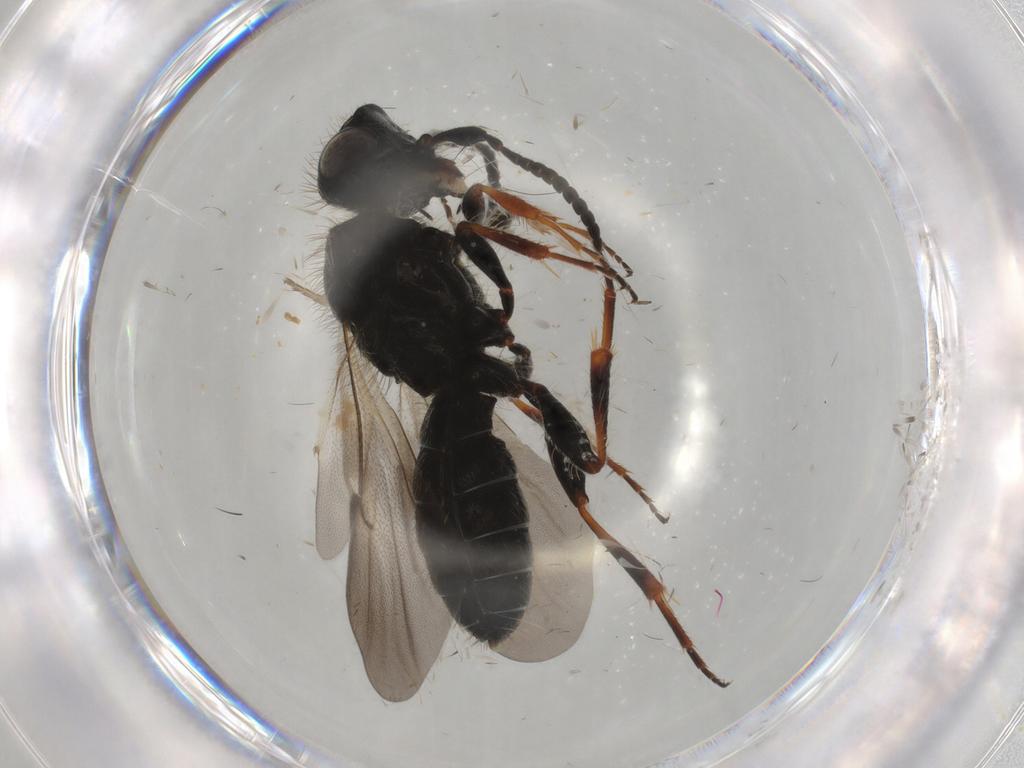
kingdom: Animalia
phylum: Arthropoda
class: Insecta
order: Hymenoptera
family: Scelionidae
